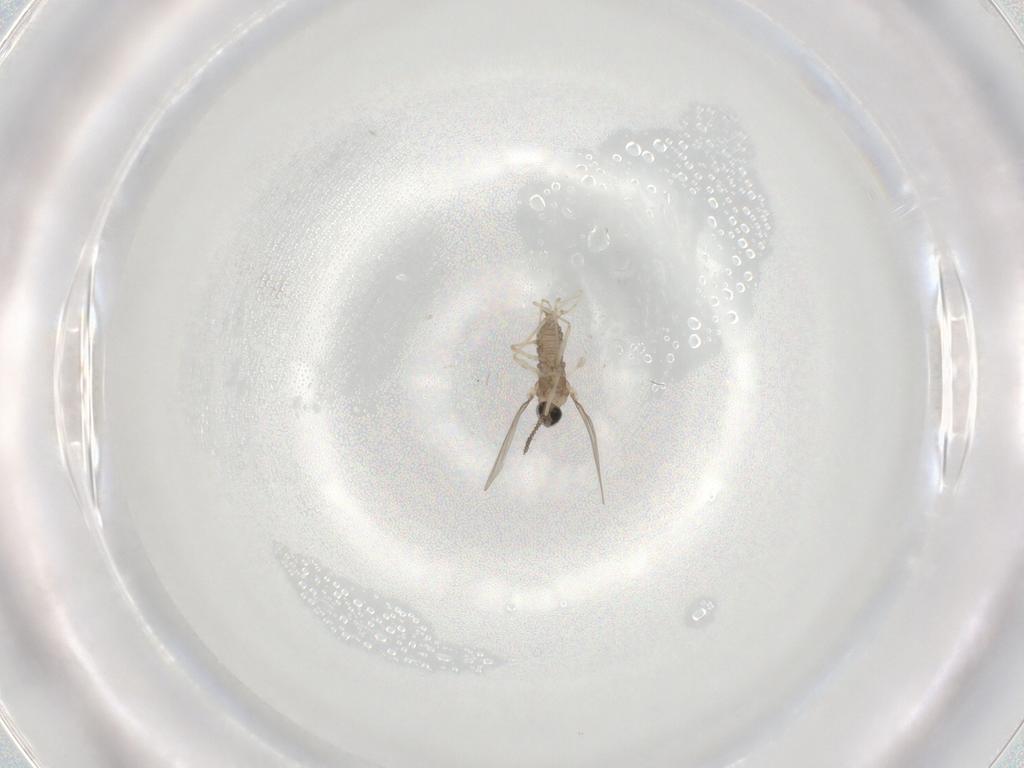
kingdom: Animalia
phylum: Arthropoda
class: Insecta
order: Diptera
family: Cecidomyiidae
